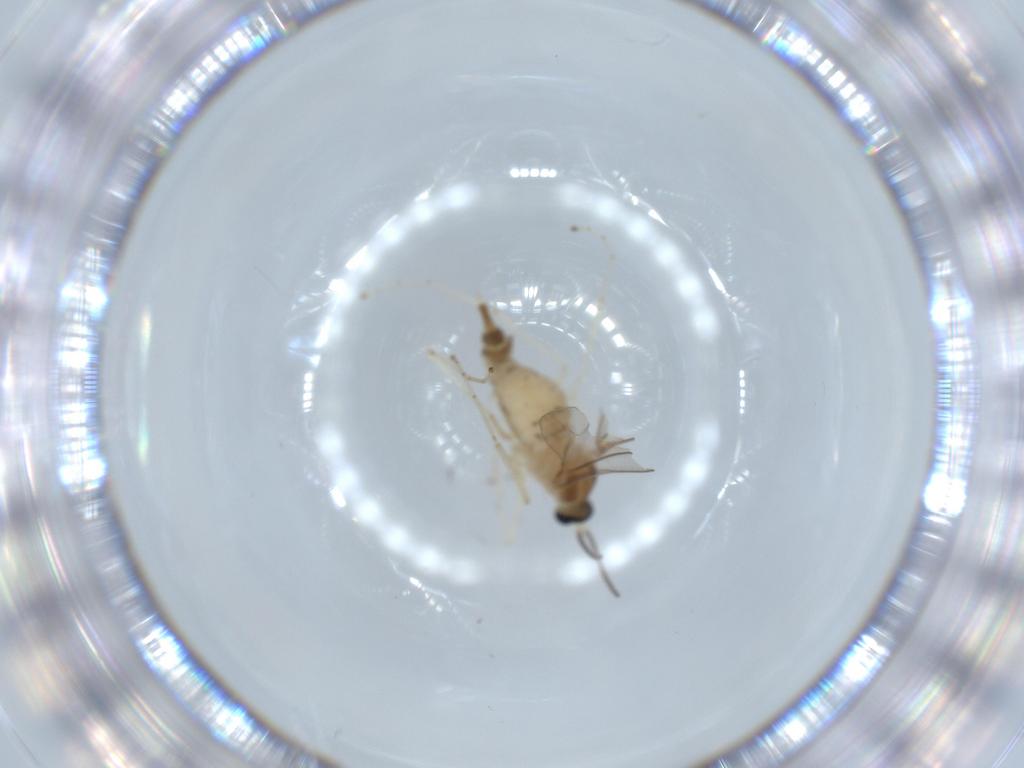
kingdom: Animalia
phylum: Arthropoda
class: Insecta
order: Diptera
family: Cecidomyiidae
